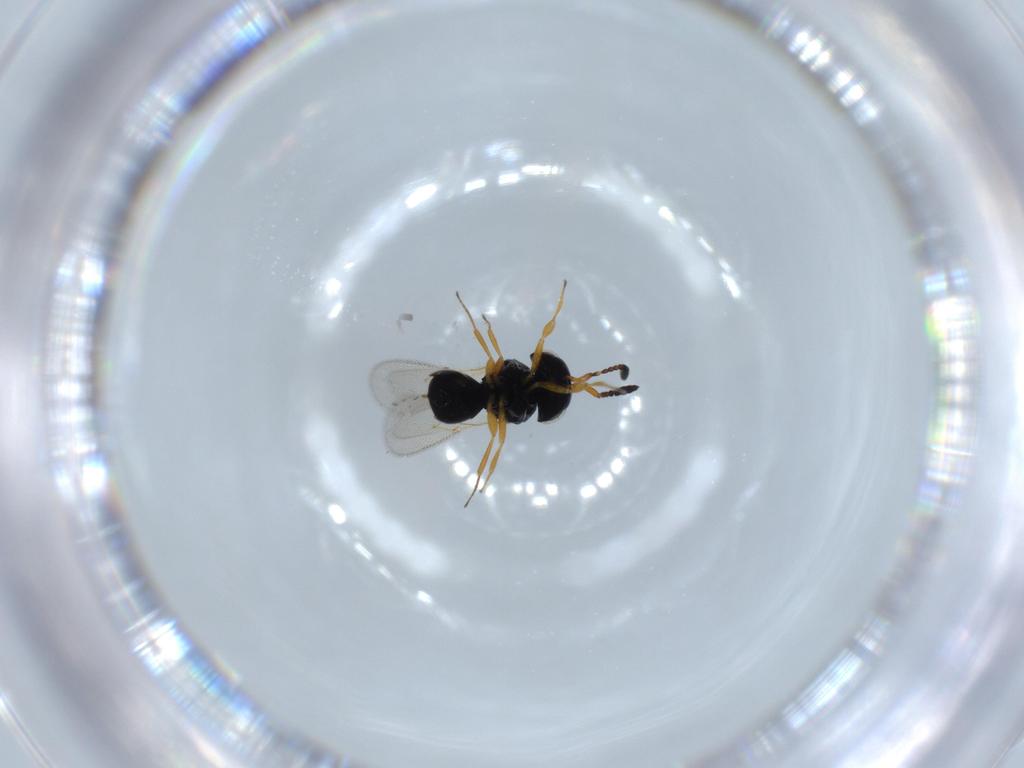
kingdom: Animalia
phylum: Arthropoda
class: Insecta
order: Hymenoptera
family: Scelionidae
